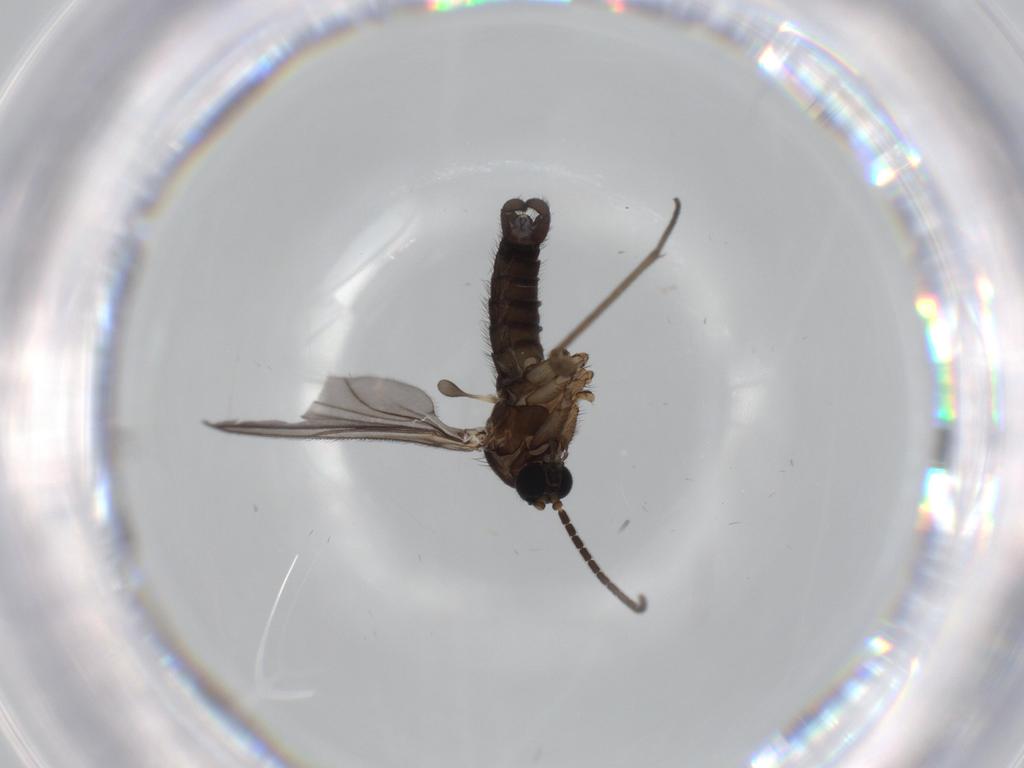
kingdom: Animalia
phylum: Arthropoda
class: Insecta
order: Diptera
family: Sciaridae
